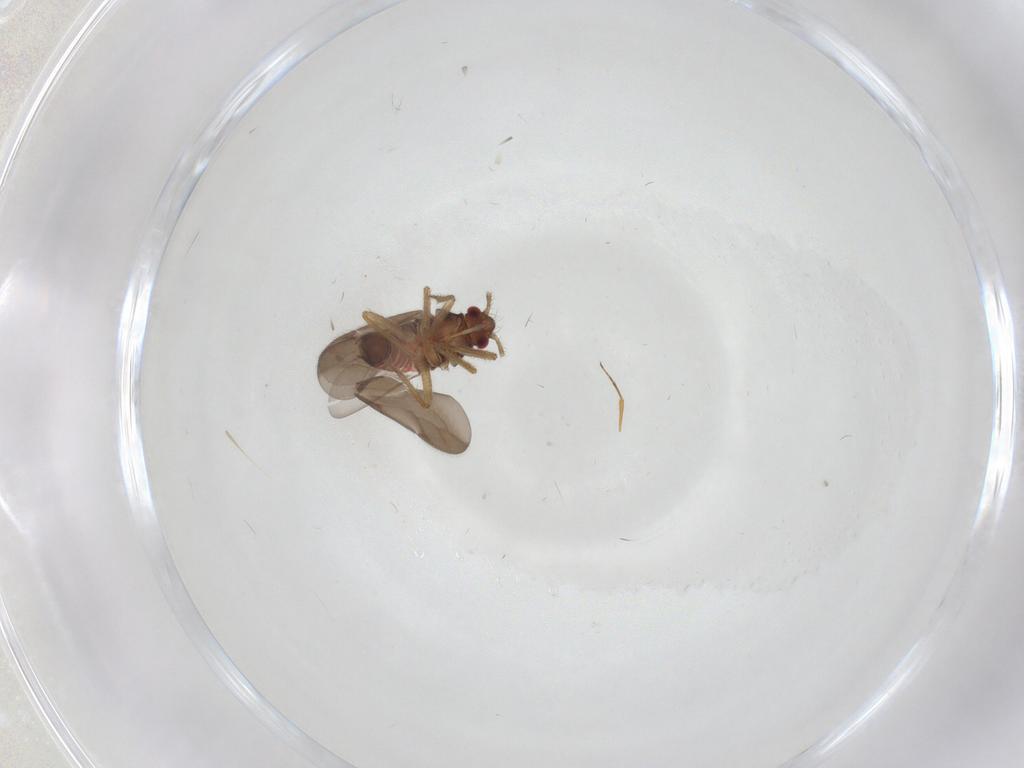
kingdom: Animalia
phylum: Arthropoda
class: Insecta
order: Hemiptera
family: Ceratocombidae
